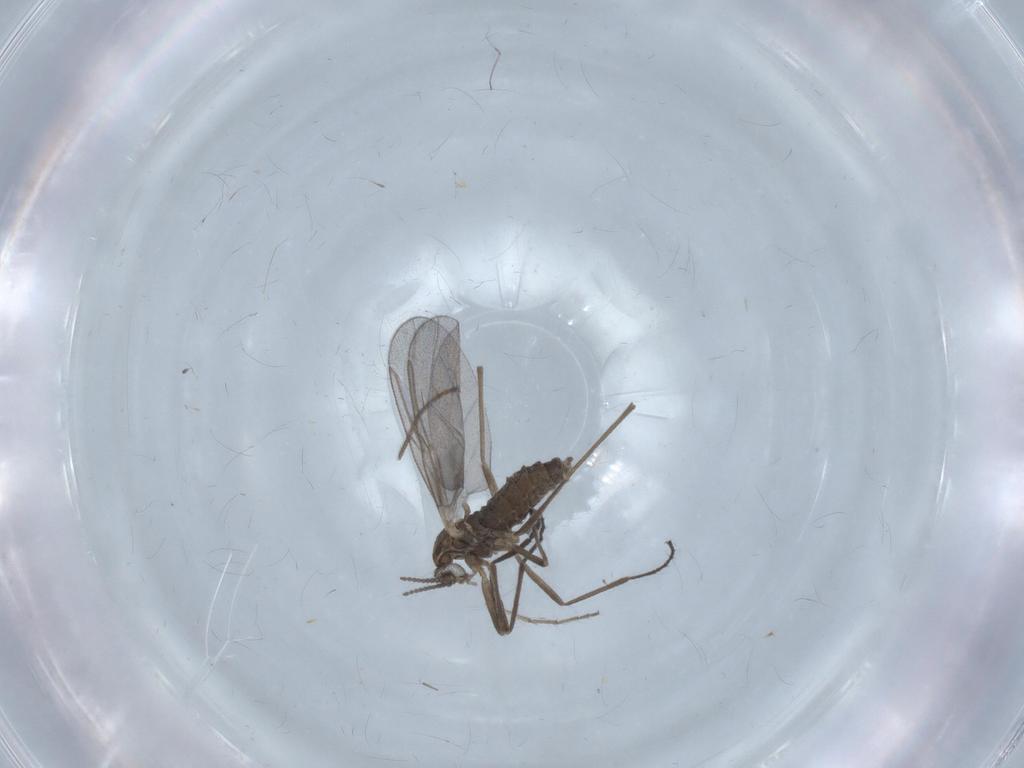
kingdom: Animalia
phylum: Arthropoda
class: Insecta
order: Diptera
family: Cecidomyiidae
